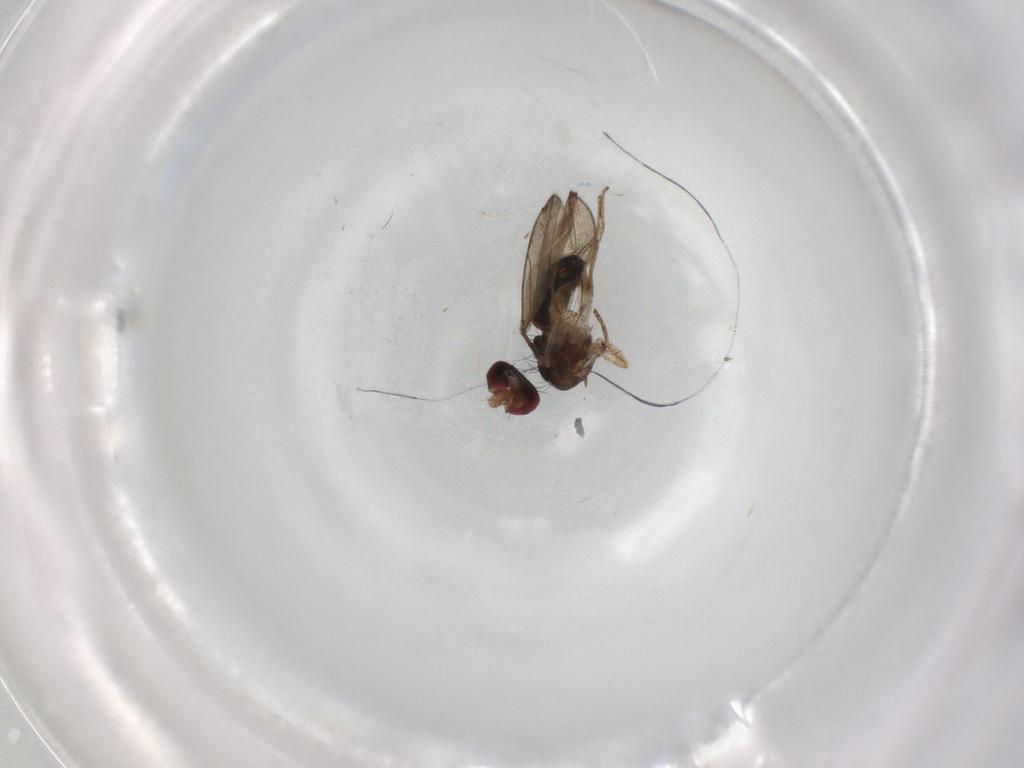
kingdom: Animalia
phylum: Arthropoda
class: Insecta
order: Diptera
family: Drosophilidae
